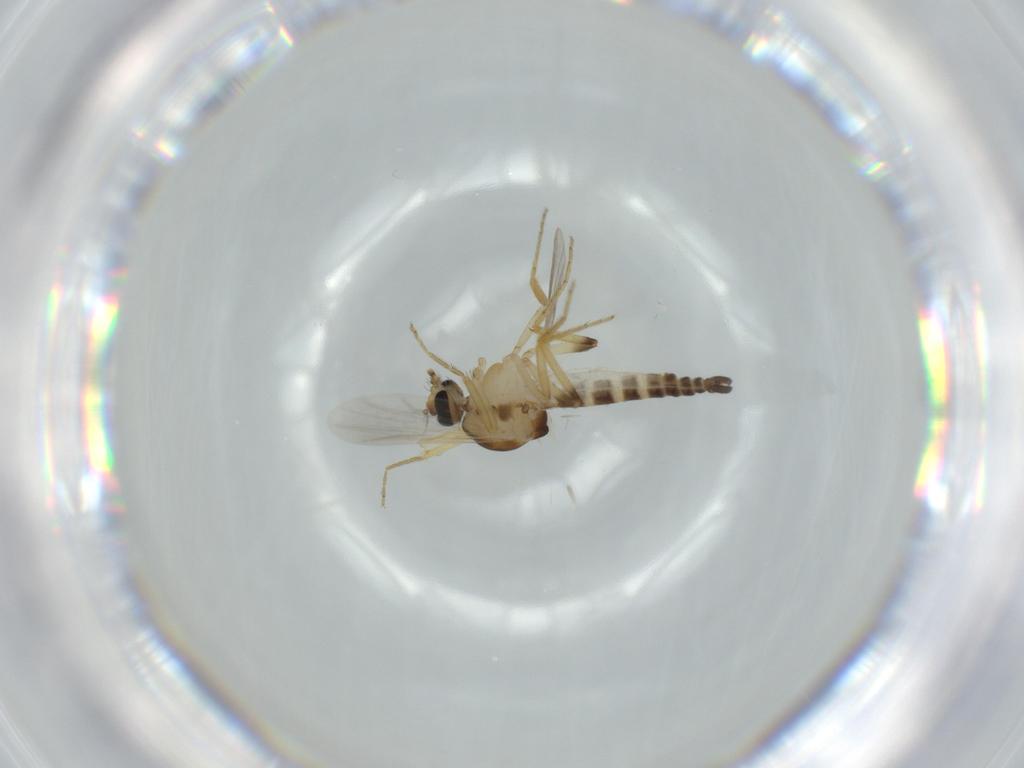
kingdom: Animalia
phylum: Arthropoda
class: Insecta
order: Diptera
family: Ceratopogonidae
